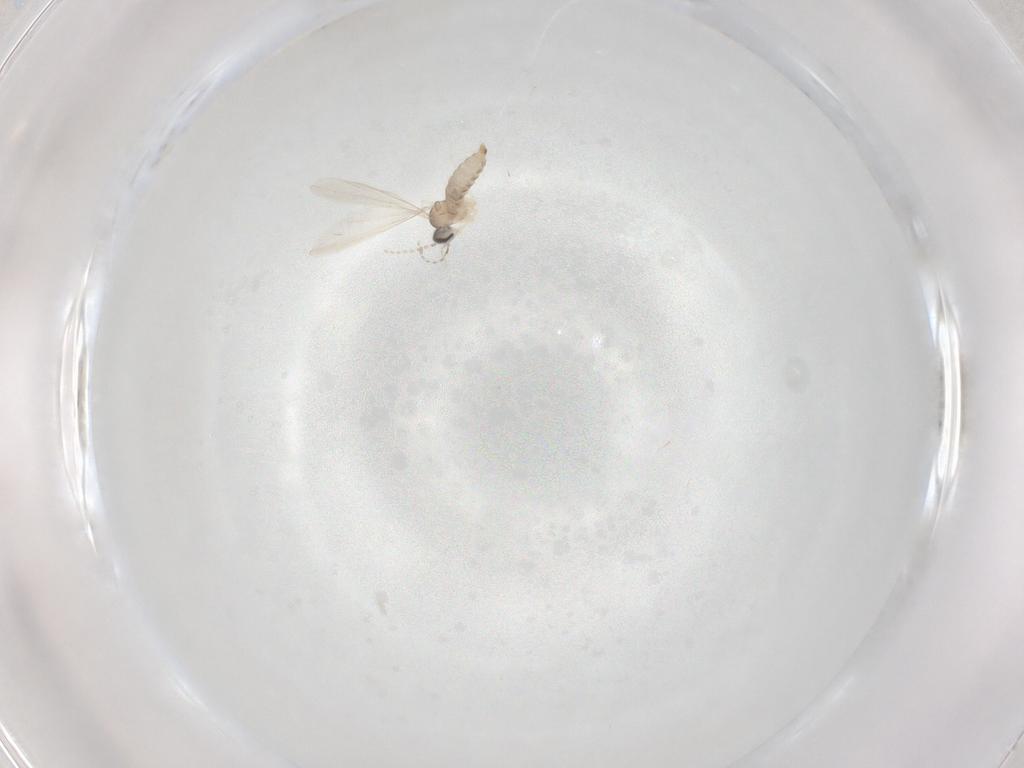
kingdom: Animalia
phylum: Arthropoda
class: Insecta
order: Diptera
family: Cecidomyiidae
